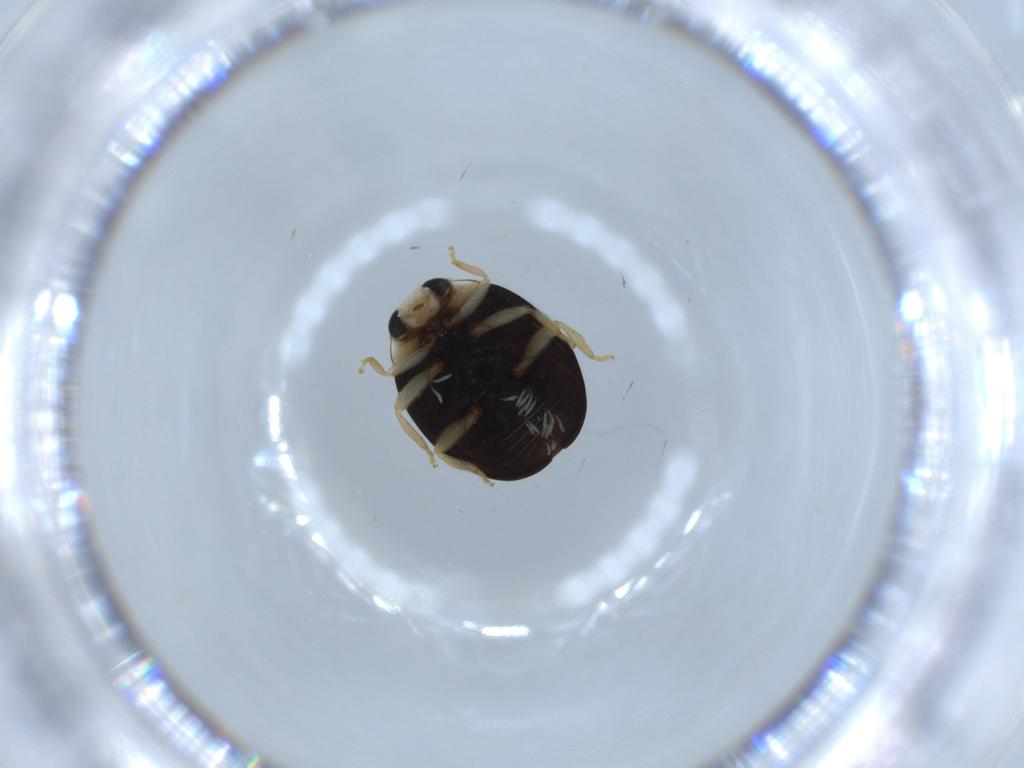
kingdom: Animalia
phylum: Arthropoda
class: Insecta
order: Coleoptera
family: Coccinellidae
